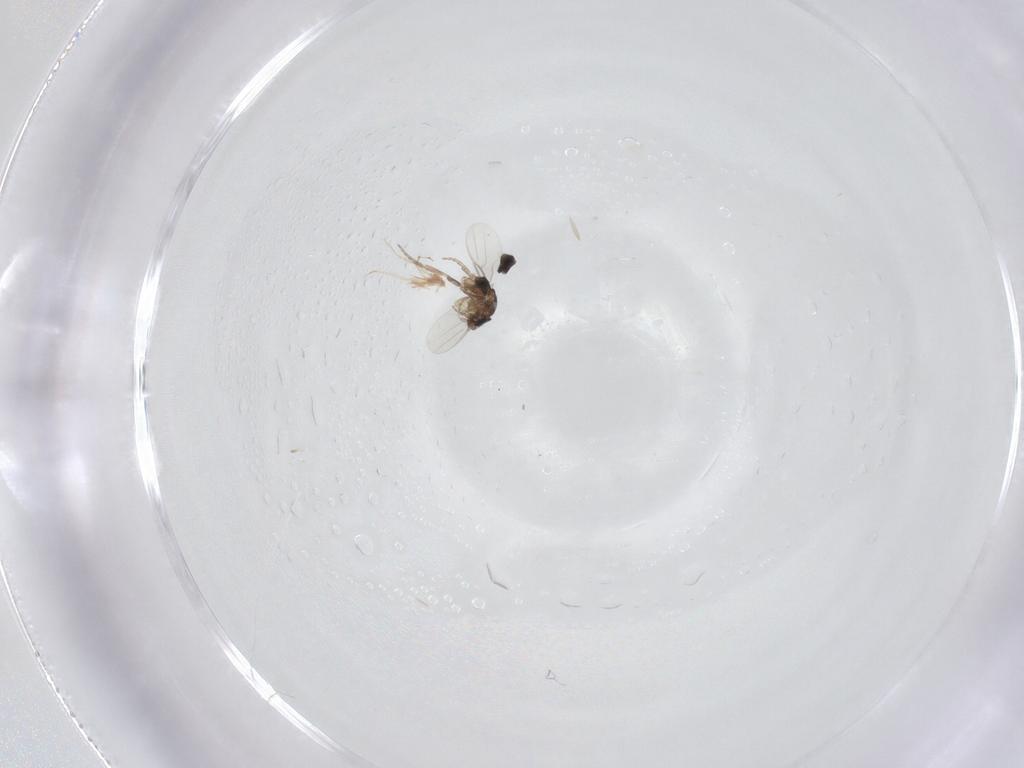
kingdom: Animalia
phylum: Arthropoda
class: Insecta
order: Diptera
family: Phoridae
